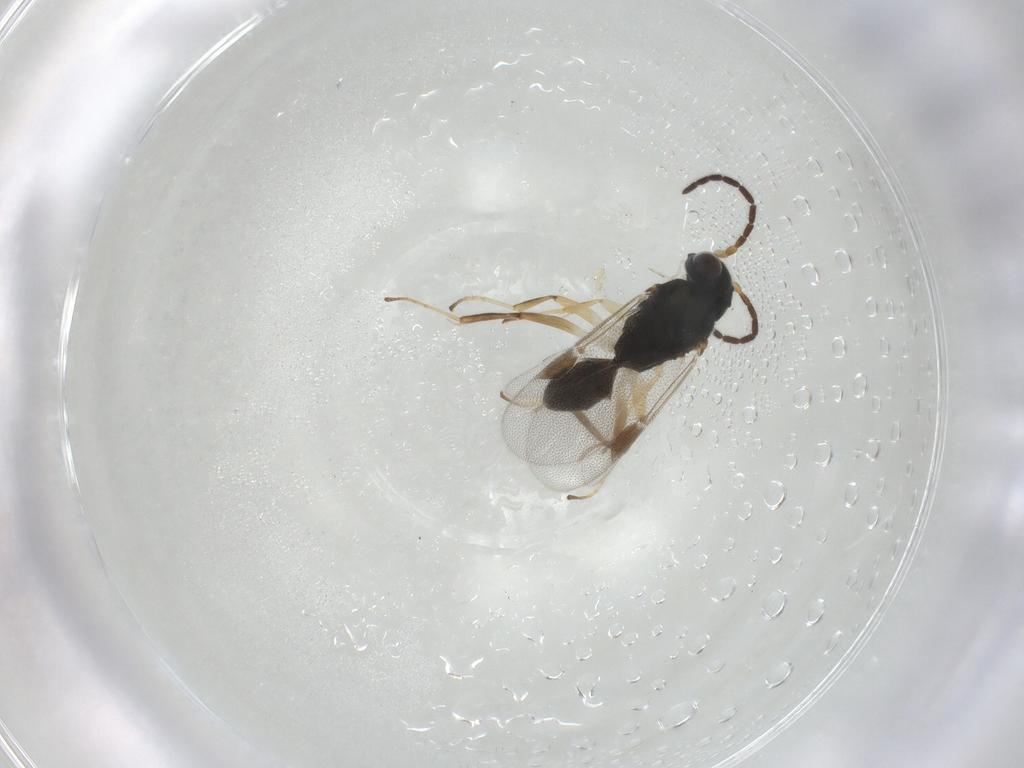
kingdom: Animalia
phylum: Arthropoda
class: Insecta
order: Hymenoptera
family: Dryinidae
